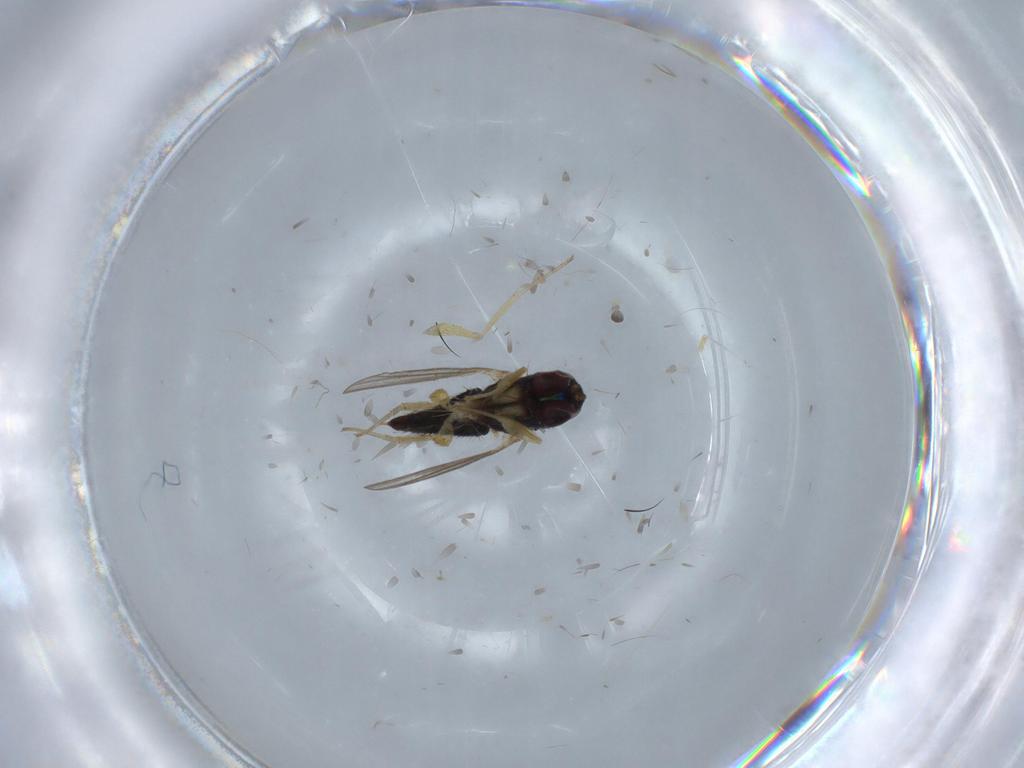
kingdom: Animalia
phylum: Arthropoda
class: Insecta
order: Diptera
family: Dolichopodidae
